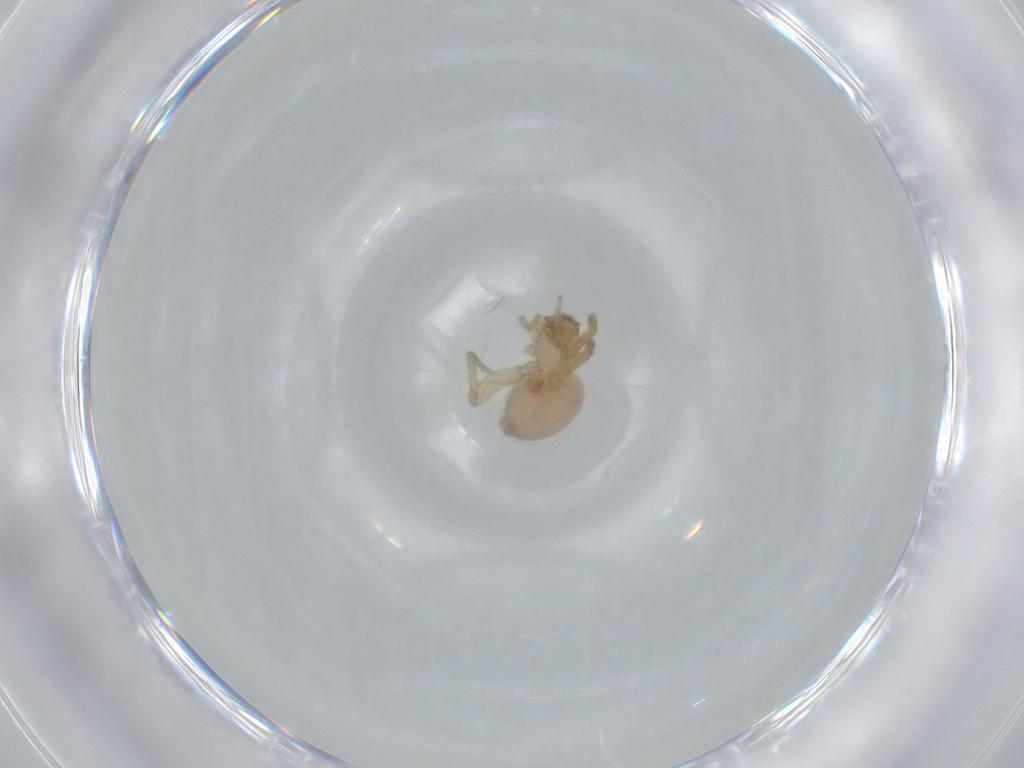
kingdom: Animalia
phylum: Arthropoda
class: Arachnida
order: Araneae
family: Oonopidae
